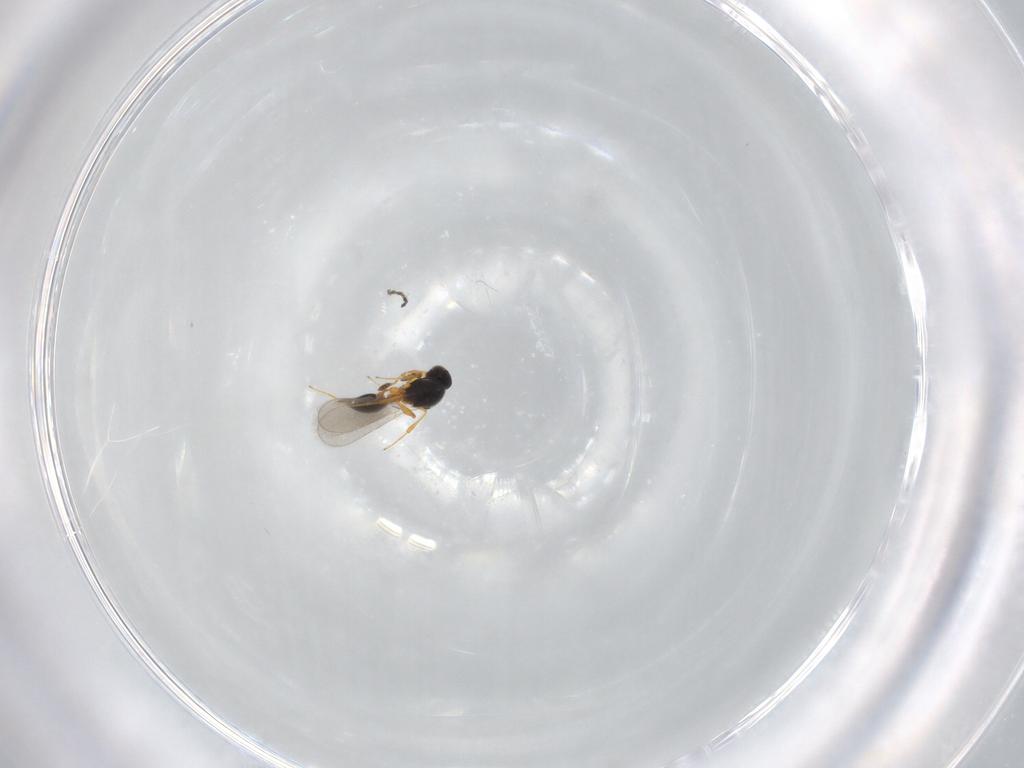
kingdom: Animalia
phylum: Arthropoda
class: Insecta
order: Hymenoptera
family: Platygastridae
